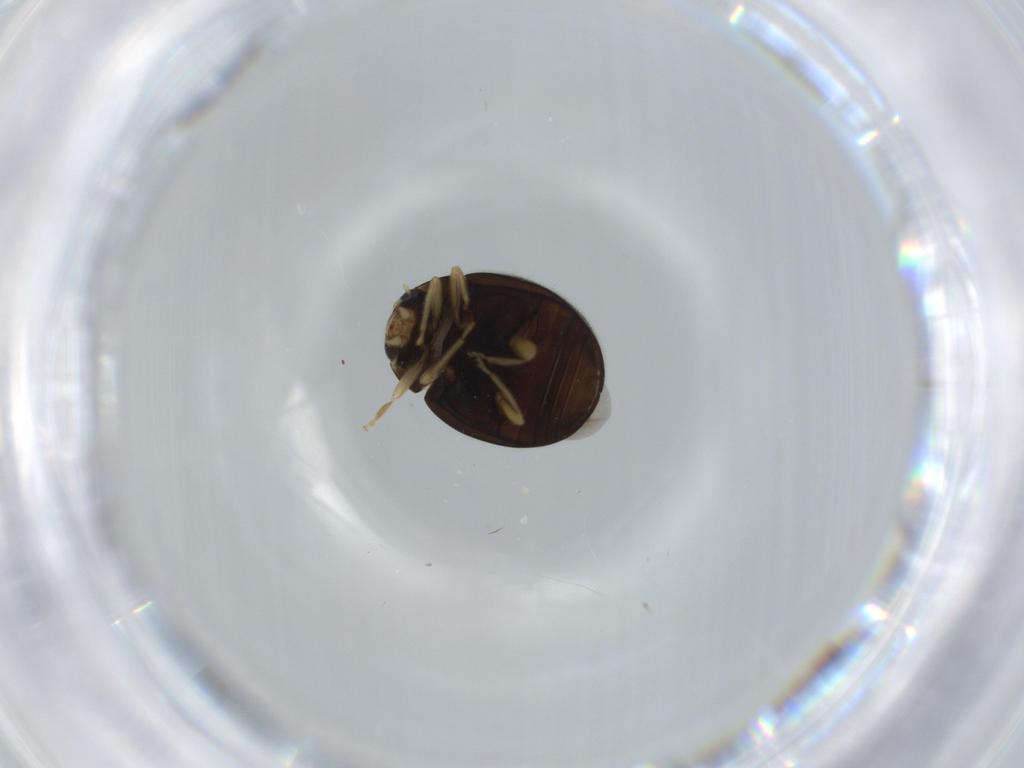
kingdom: Animalia
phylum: Arthropoda
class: Insecta
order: Coleoptera
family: Coccinellidae
